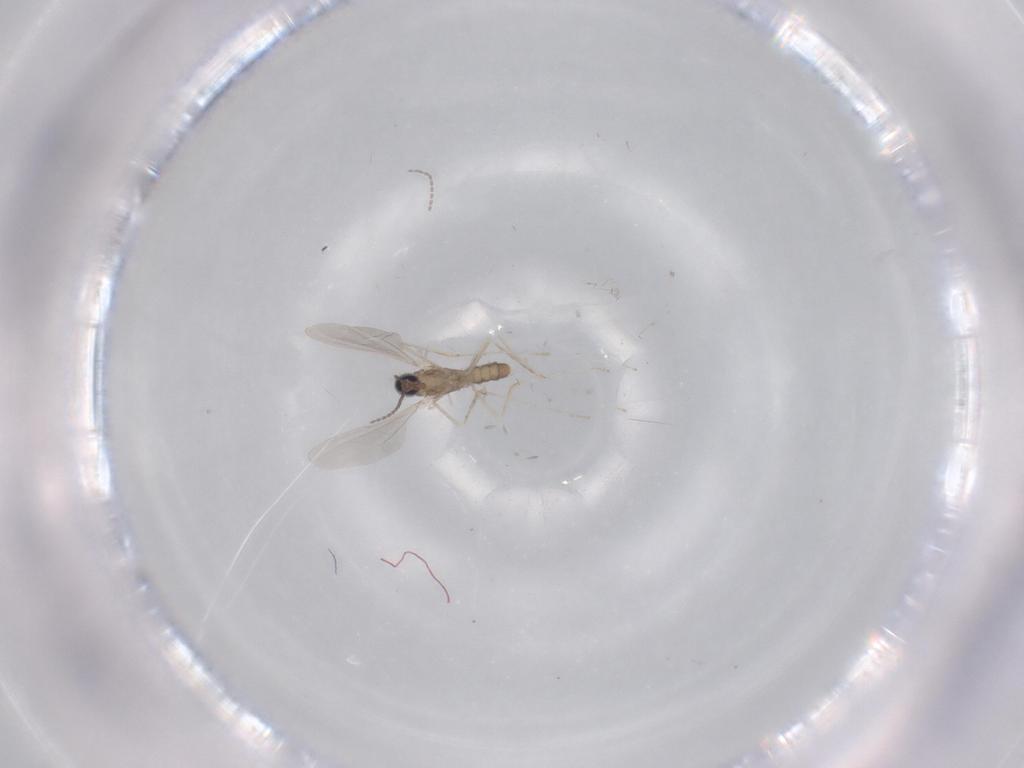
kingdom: Animalia
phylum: Arthropoda
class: Insecta
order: Diptera
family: Cecidomyiidae
